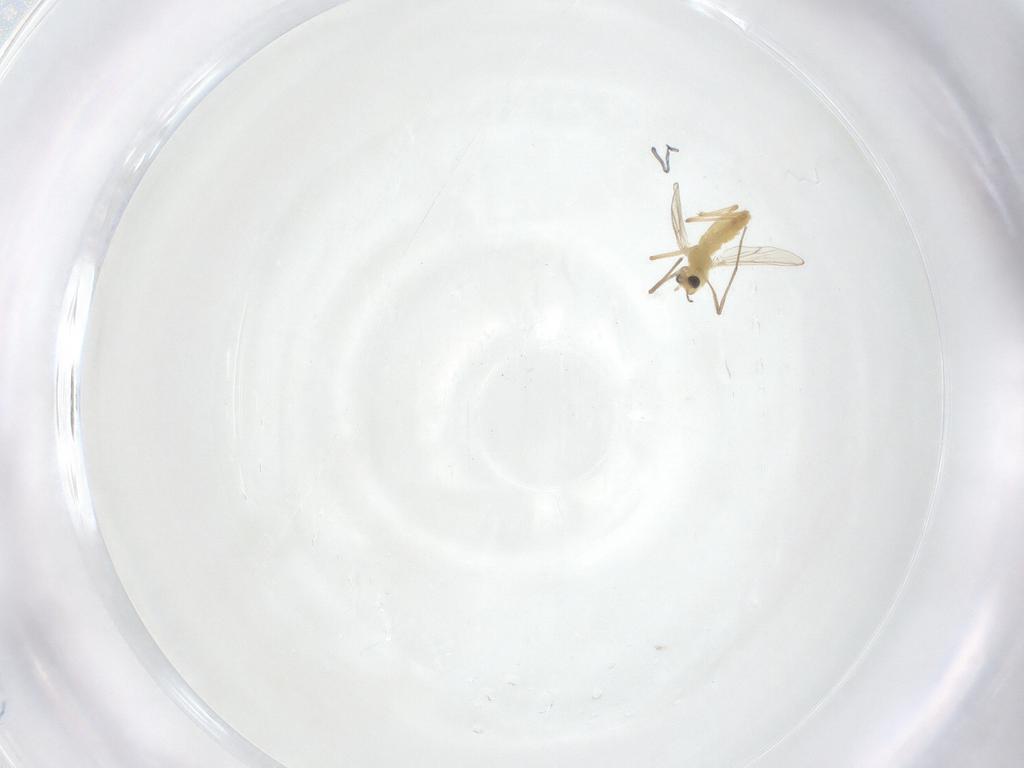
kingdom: Animalia
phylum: Arthropoda
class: Insecta
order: Diptera
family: Chironomidae
